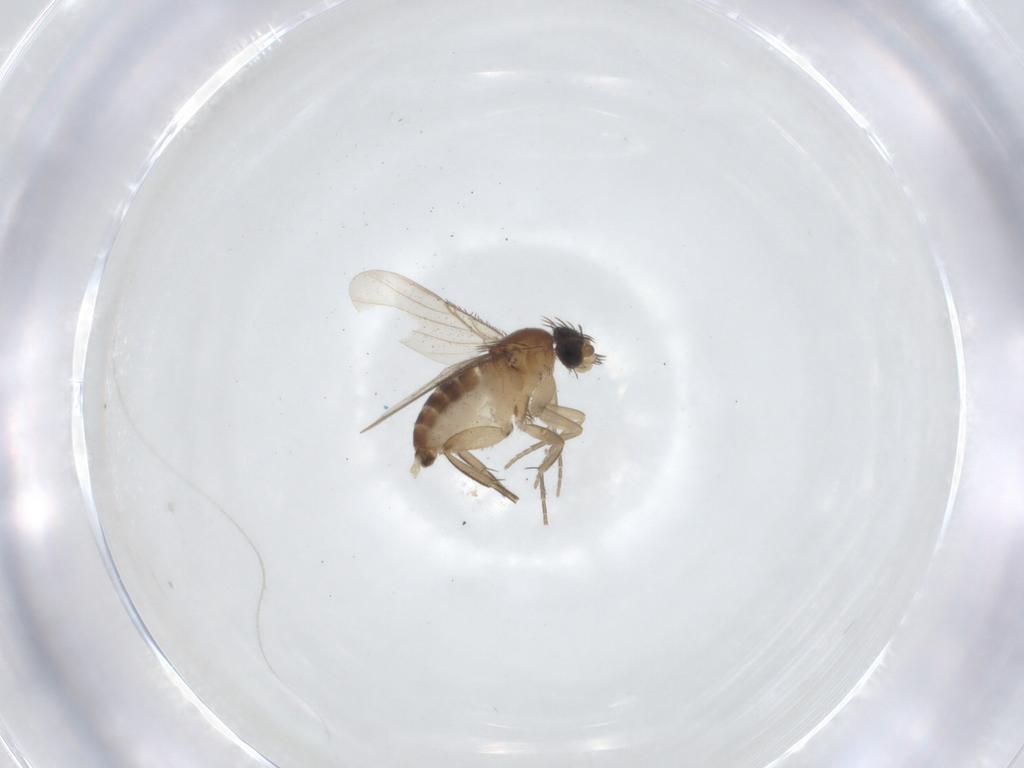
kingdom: Animalia
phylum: Arthropoda
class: Insecta
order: Diptera
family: Phoridae
